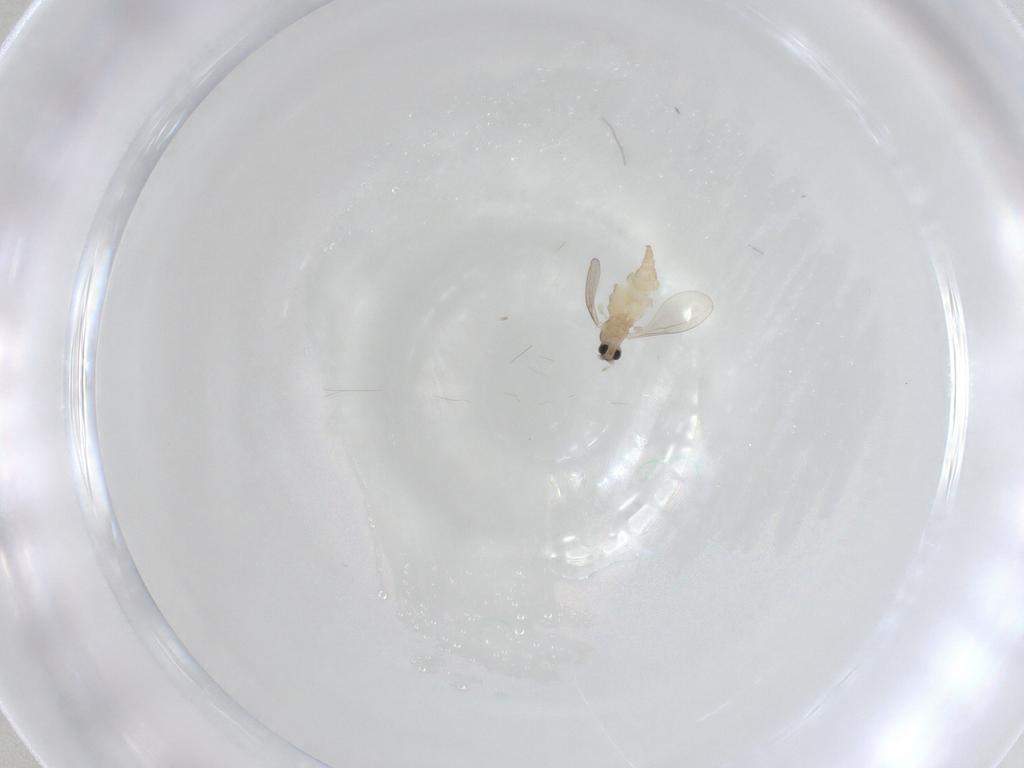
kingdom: Animalia
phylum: Arthropoda
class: Insecta
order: Diptera
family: Cecidomyiidae
